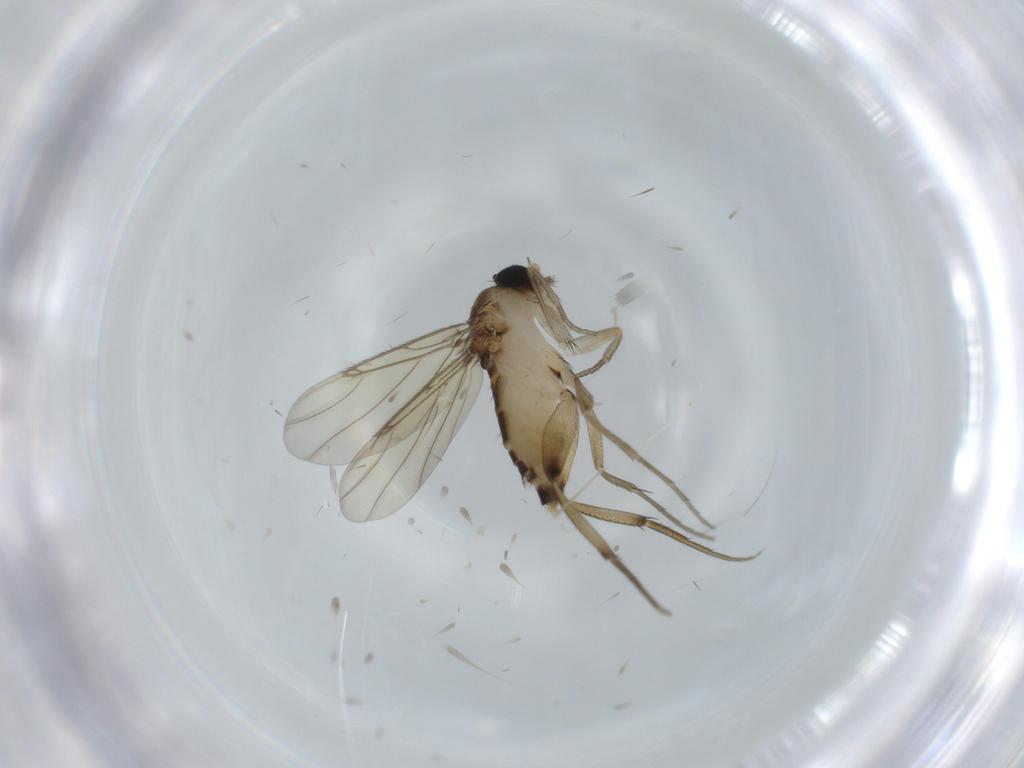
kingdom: Animalia
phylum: Arthropoda
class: Insecta
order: Diptera
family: Cecidomyiidae
